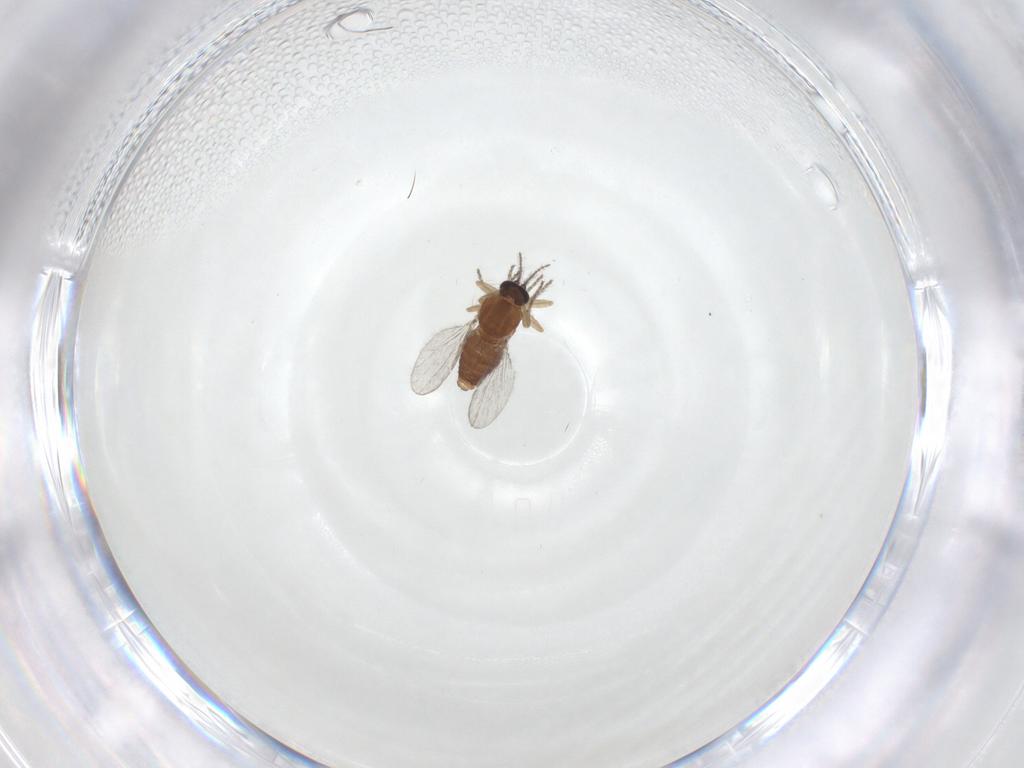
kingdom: Animalia
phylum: Arthropoda
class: Insecta
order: Diptera
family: Ceratopogonidae
